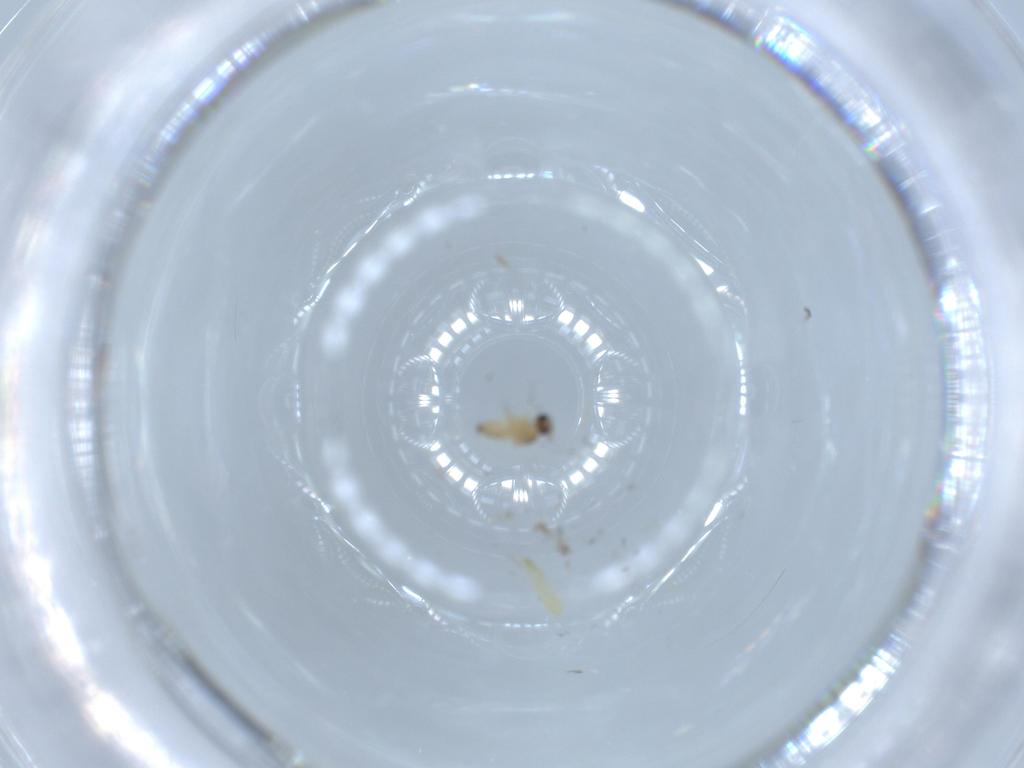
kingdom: Animalia
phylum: Arthropoda
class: Insecta
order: Diptera
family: Cecidomyiidae
